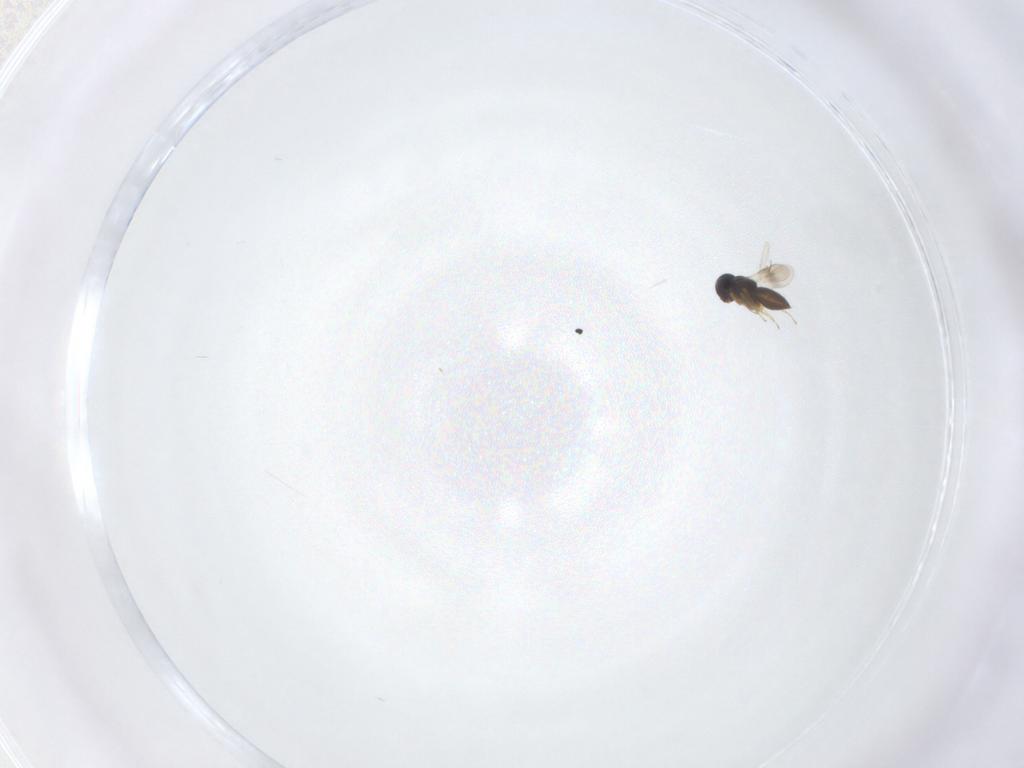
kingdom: Animalia
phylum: Arthropoda
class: Insecta
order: Hymenoptera
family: Scelionidae
